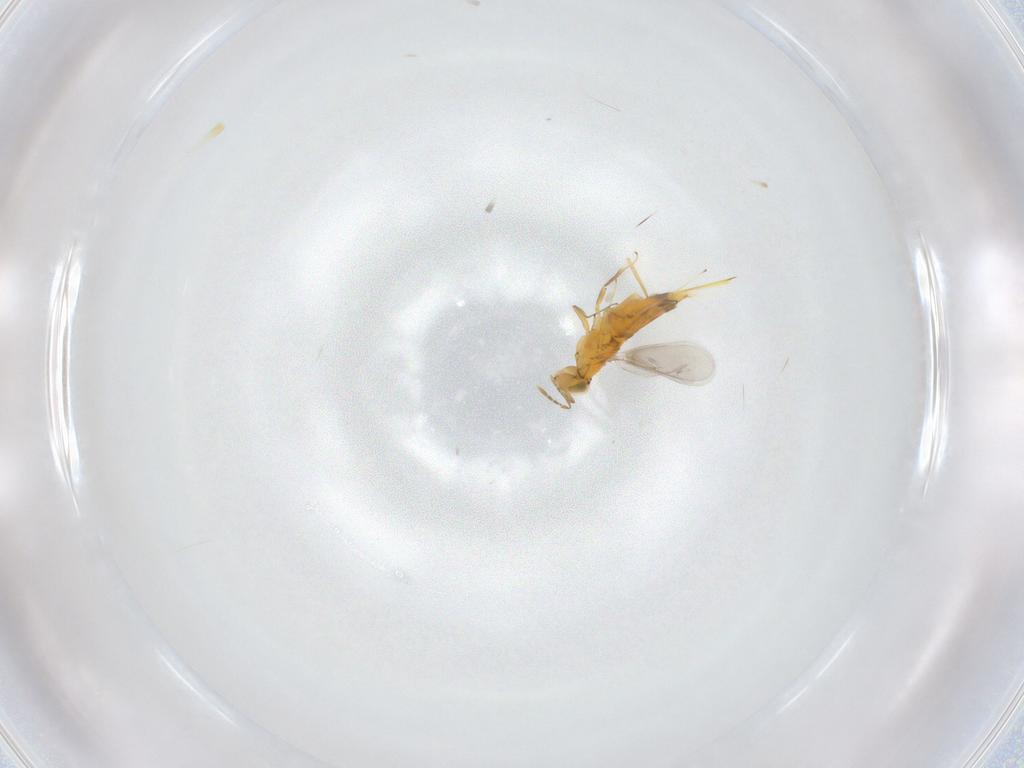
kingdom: Animalia
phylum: Arthropoda
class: Insecta
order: Hymenoptera
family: Aphelinidae
